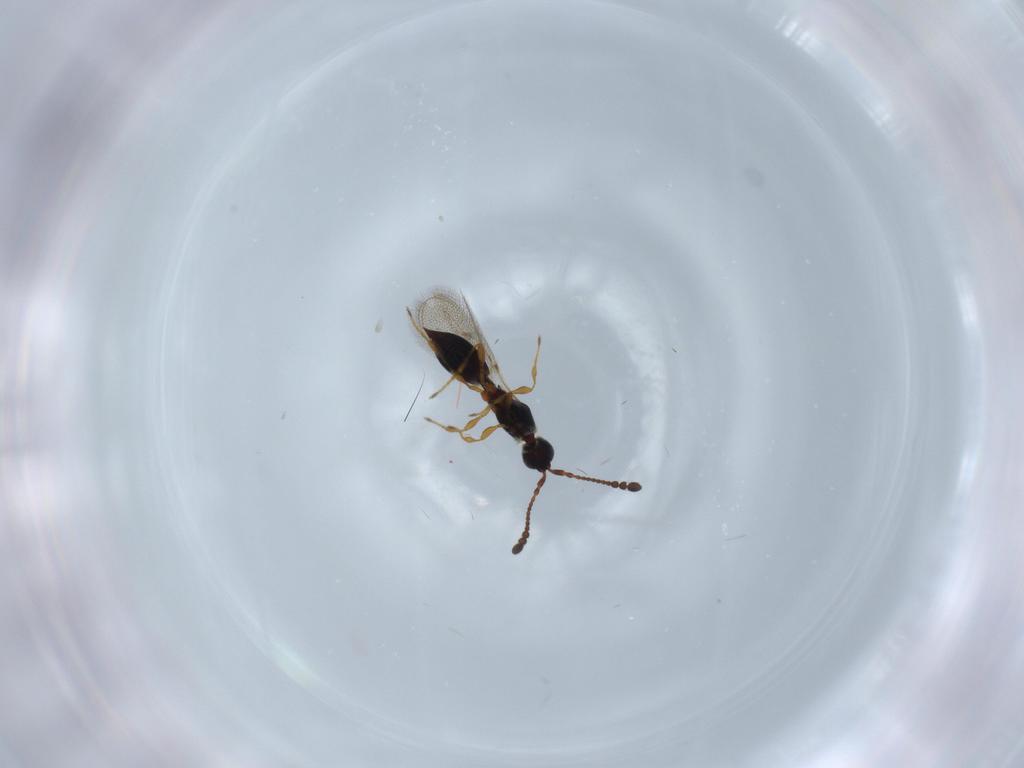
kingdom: Animalia
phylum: Arthropoda
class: Insecta
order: Hymenoptera
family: Diapriidae
